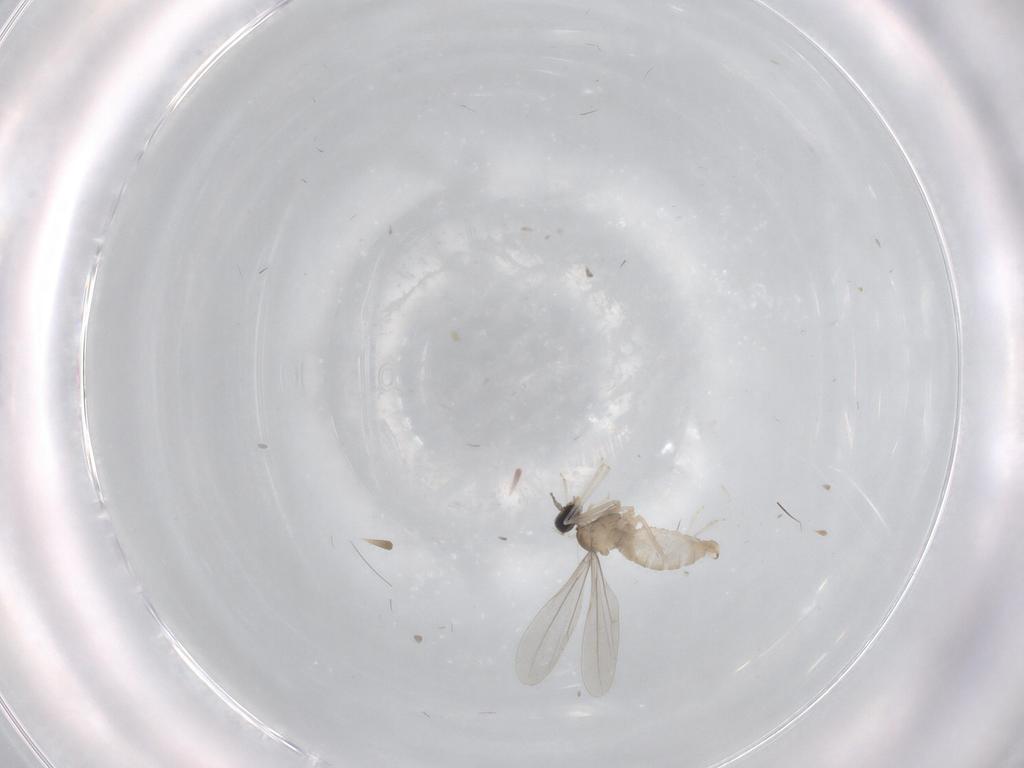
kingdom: Animalia
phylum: Arthropoda
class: Insecta
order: Diptera
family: Cecidomyiidae
